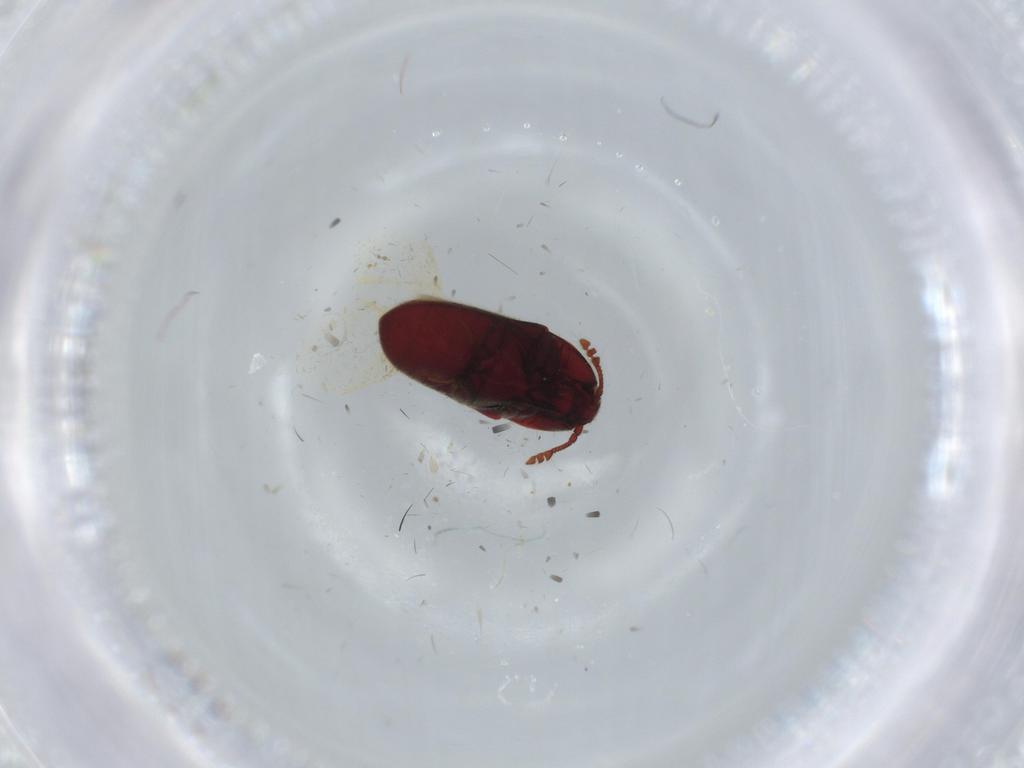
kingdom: Animalia
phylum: Arthropoda
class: Insecta
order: Coleoptera
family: Throscidae
